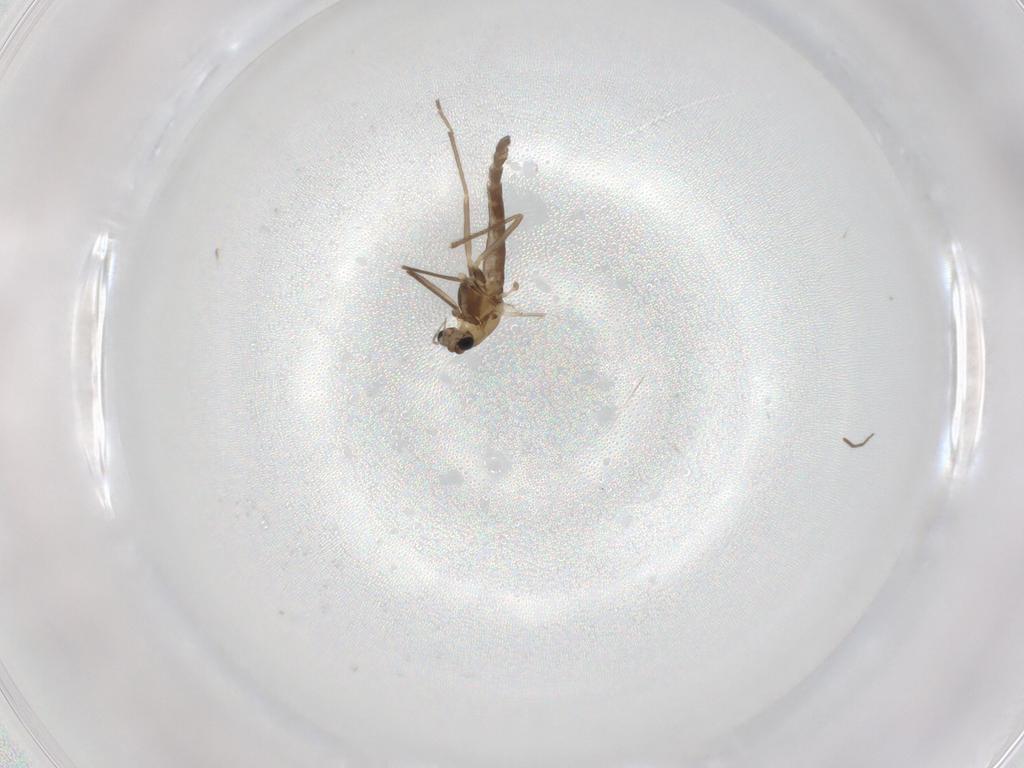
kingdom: Animalia
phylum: Arthropoda
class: Insecta
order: Diptera
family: Chironomidae
